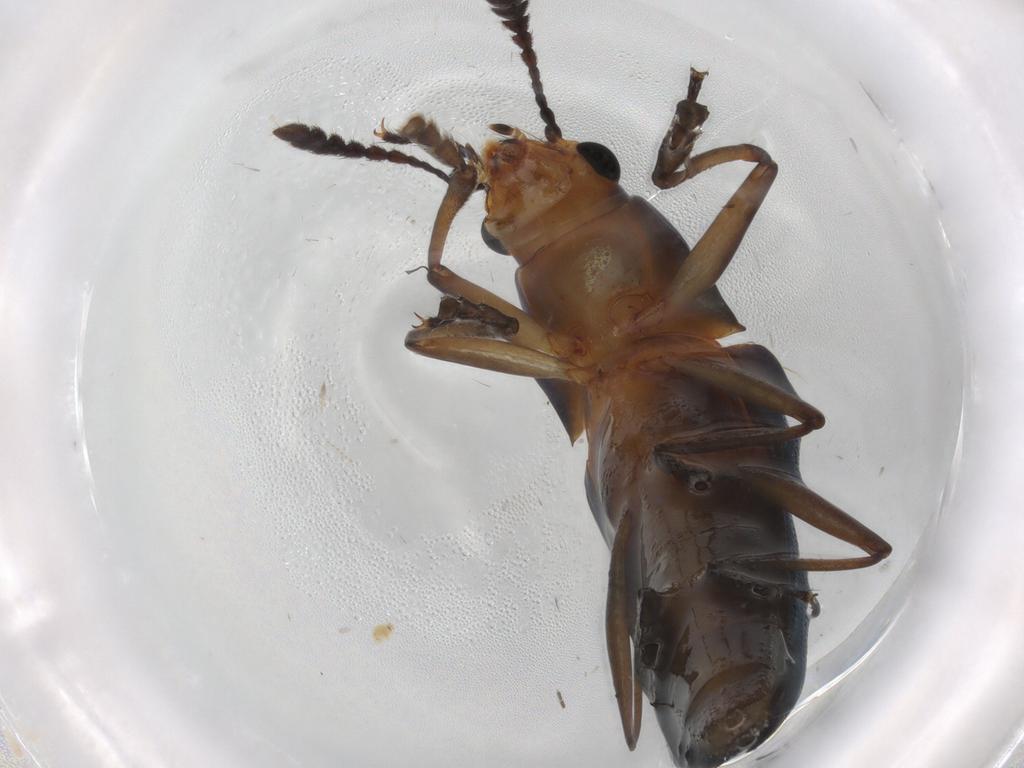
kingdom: Animalia
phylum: Arthropoda
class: Insecta
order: Coleoptera
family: Erotylidae
